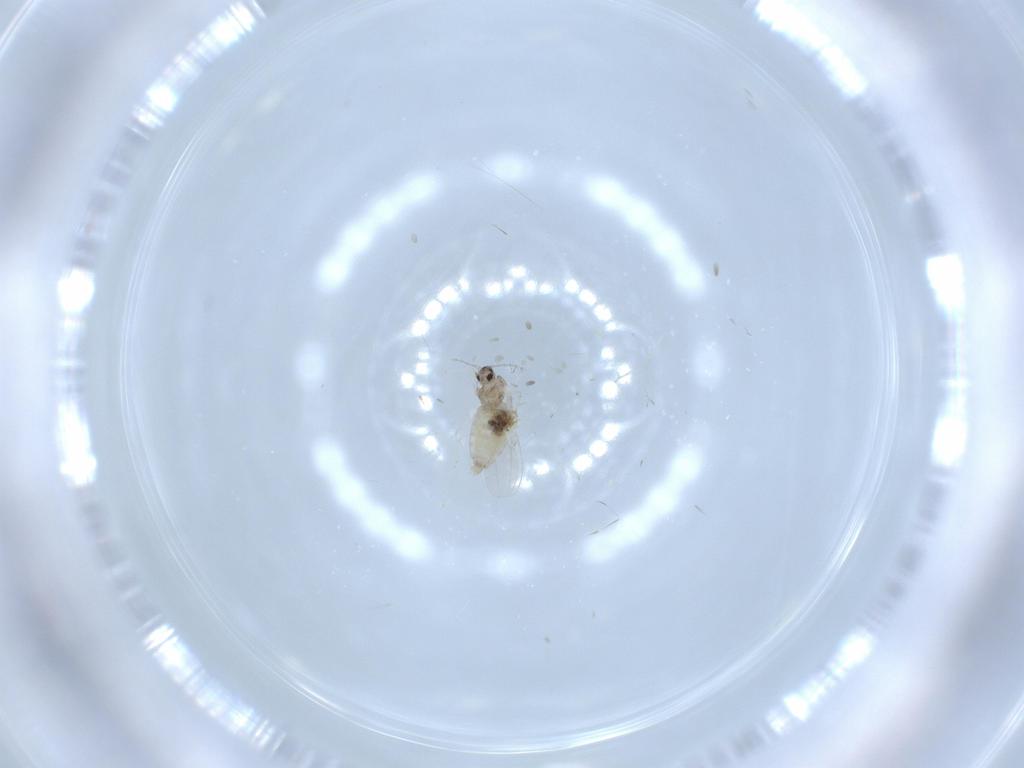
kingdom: Animalia
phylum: Arthropoda
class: Insecta
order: Diptera
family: Cecidomyiidae
